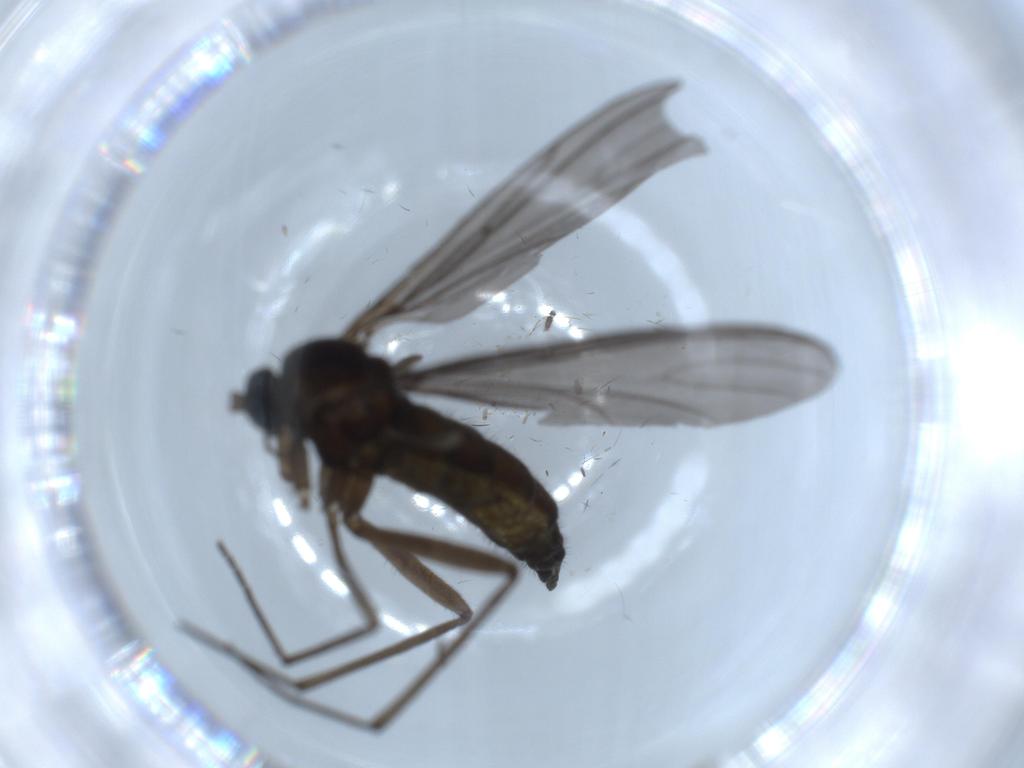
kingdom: Animalia
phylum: Arthropoda
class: Insecta
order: Diptera
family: Sciaridae
